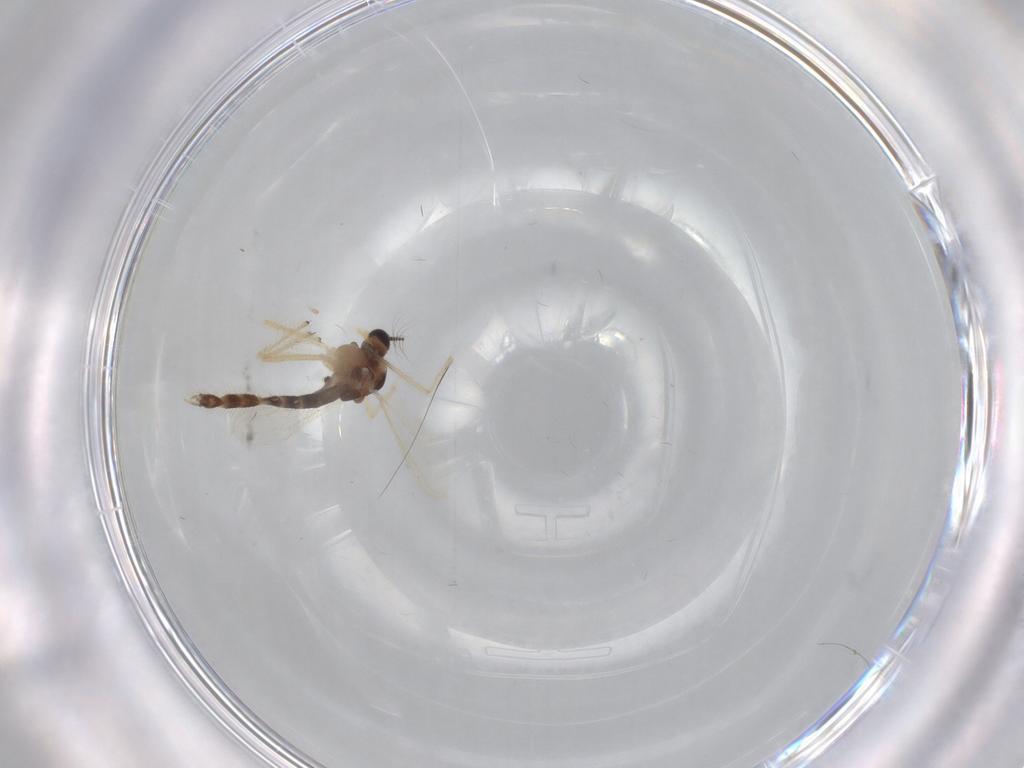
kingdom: Animalia
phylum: Arthropoda
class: Insecta
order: Diptera
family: Chironomidae
